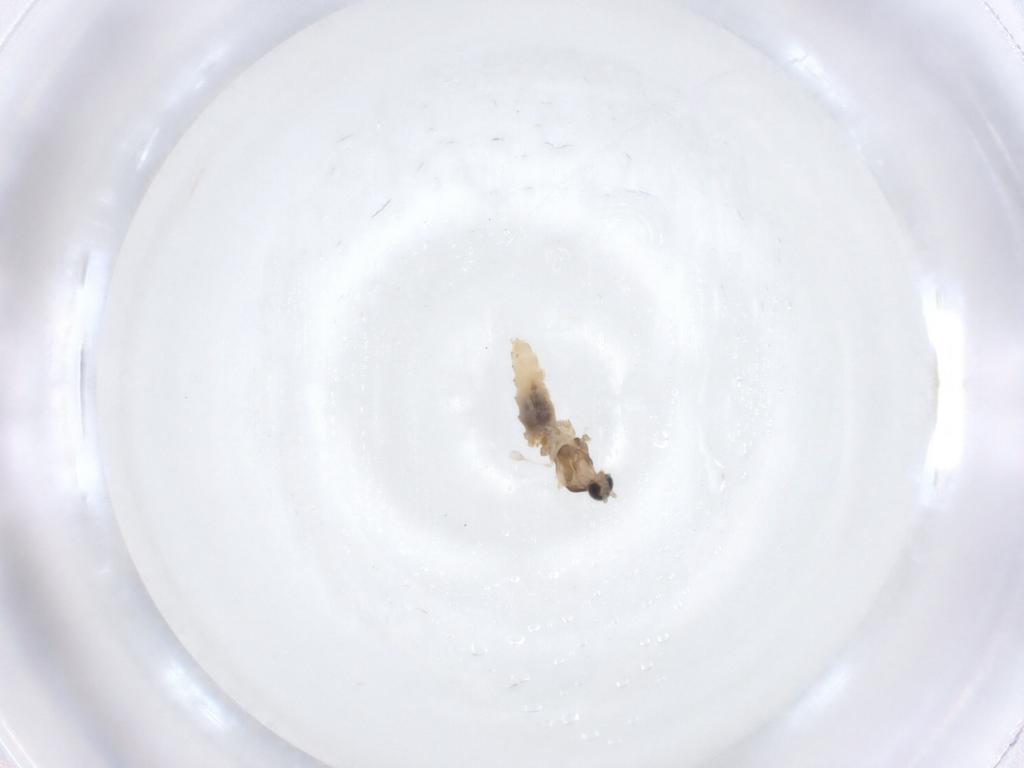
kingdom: Animalia
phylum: Arthropoda
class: Insecta
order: Diptera
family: Cecidomyiidae
